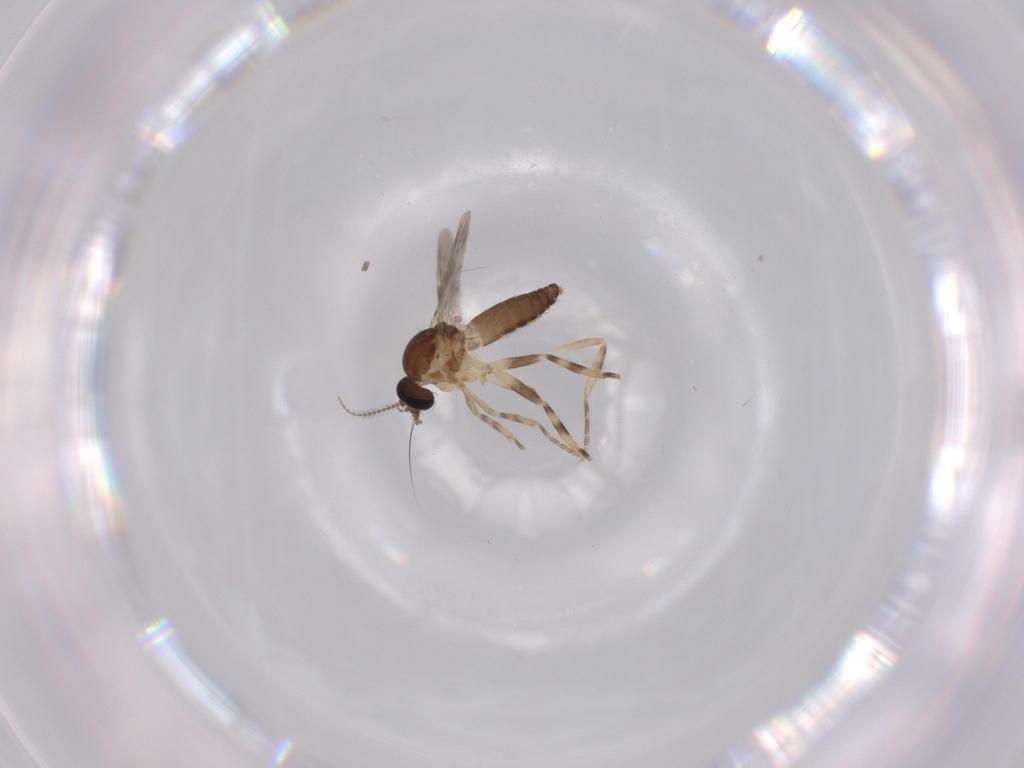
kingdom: Animalia
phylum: Arthropoda
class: Insecta
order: Diptera
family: Ceratopogonidae
